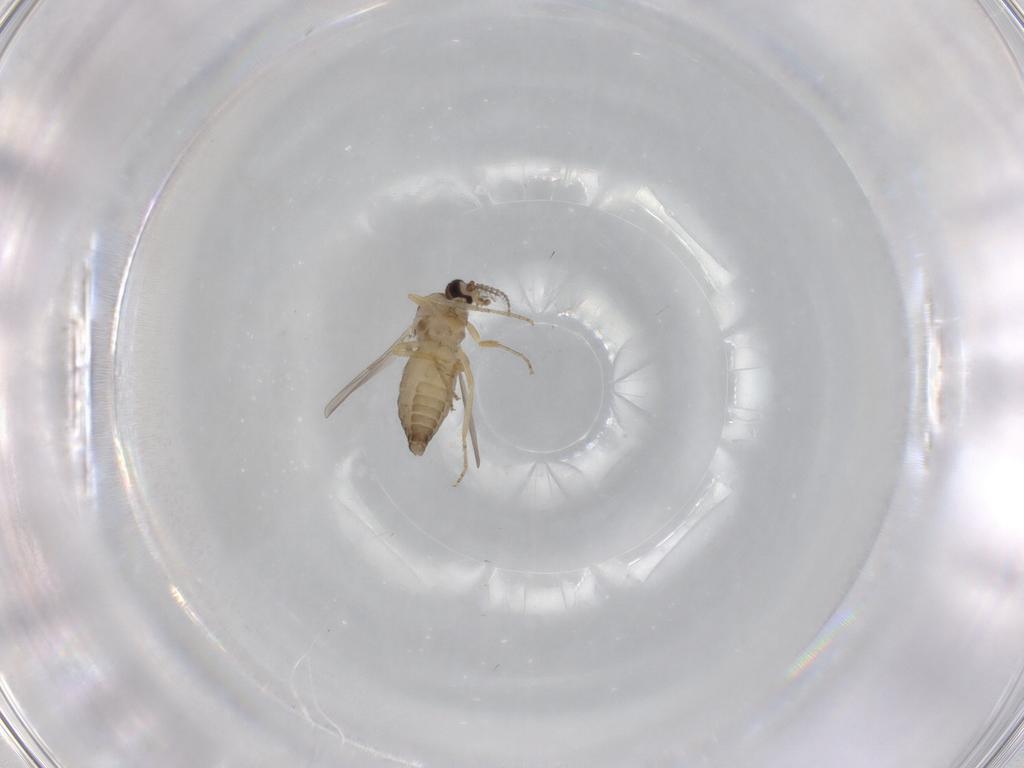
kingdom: Animalia
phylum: Arthropoda
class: Insecta
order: Diptera
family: Ceratopogonidae
